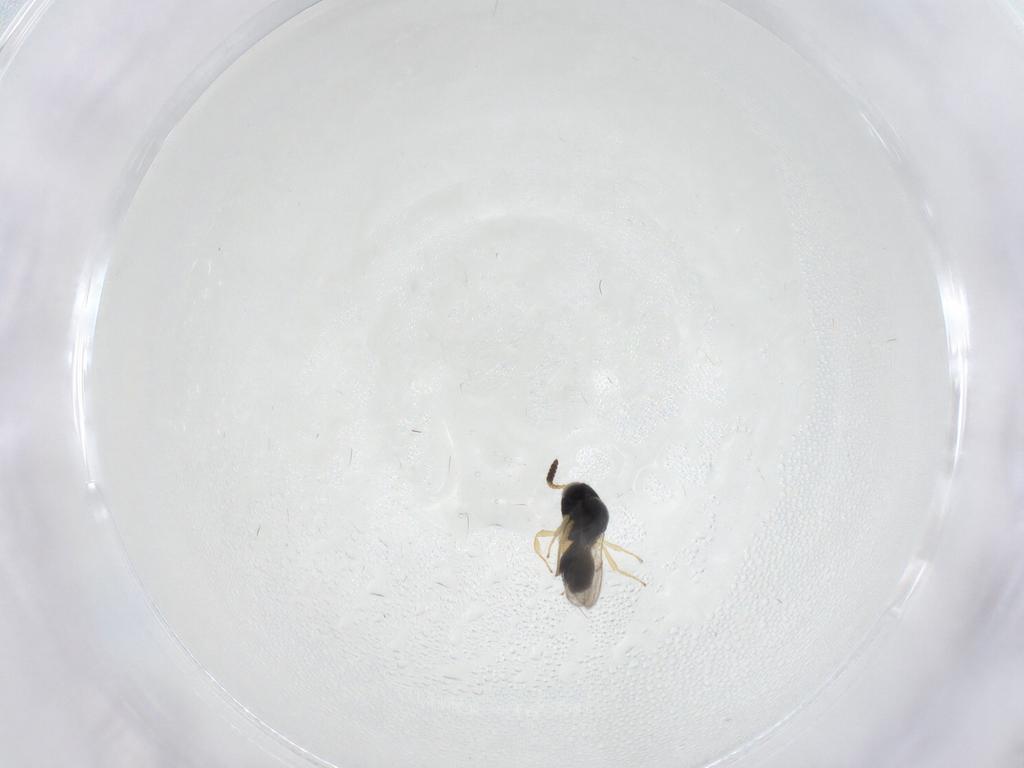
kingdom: Animalia
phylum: Arthropoda
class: Insecta
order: Hymenoptera
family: Scelionidae
